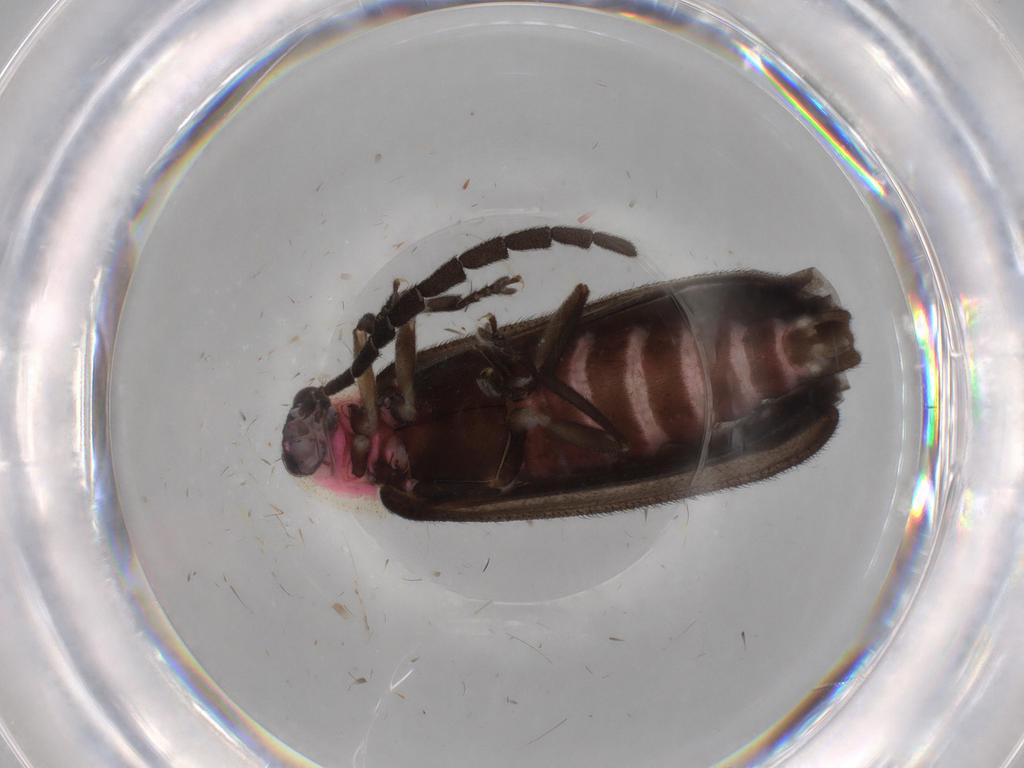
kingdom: Animalia
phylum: Arthropoda
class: Insecta
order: Coleoptera
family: Lampyridae
